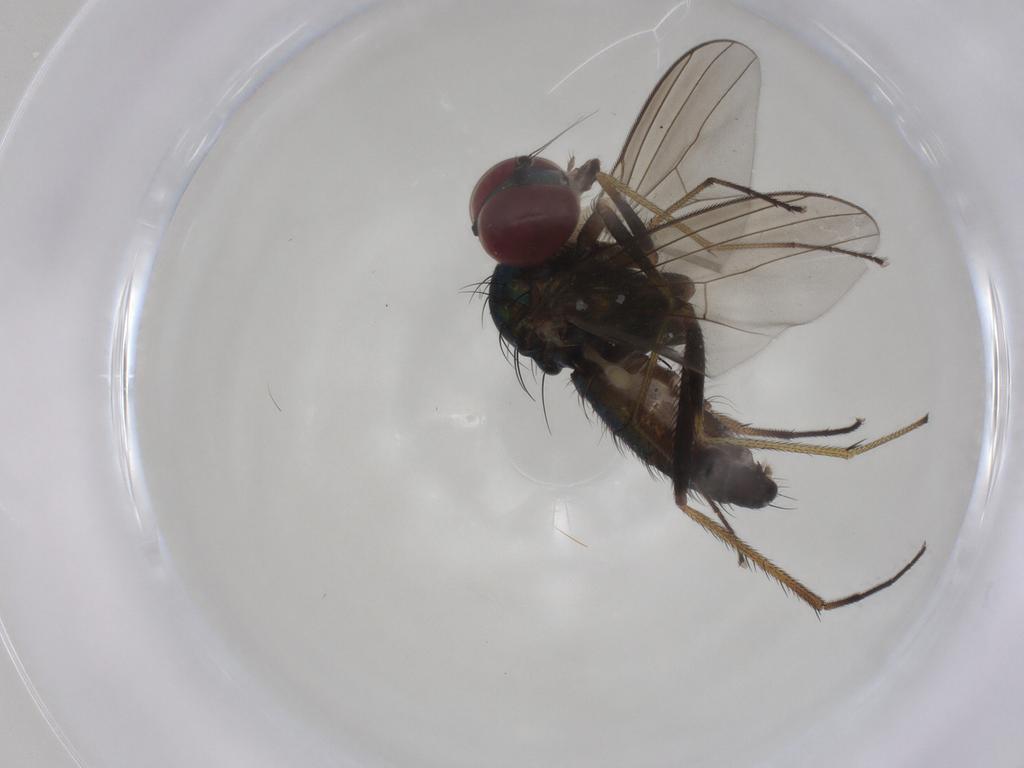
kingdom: Animalia
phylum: Arthropoda
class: Insecta
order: Diptera
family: Dolichopodidae
